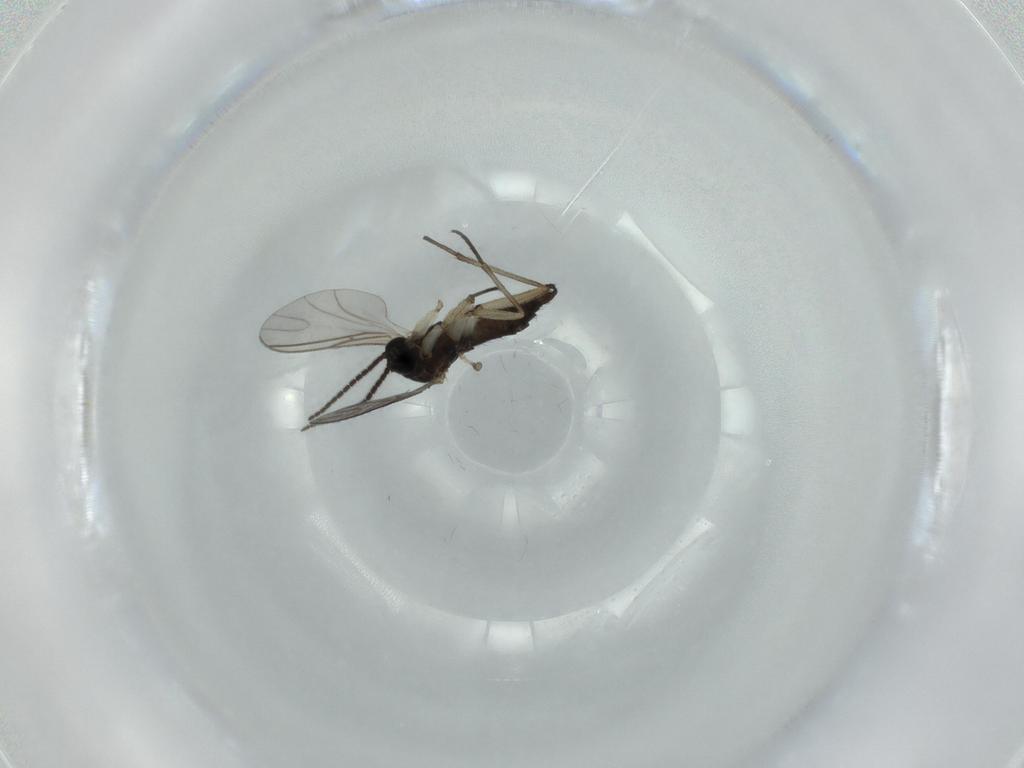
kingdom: Animalia
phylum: Arthropoda
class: Insecta
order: Diptera
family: Sciaridae
